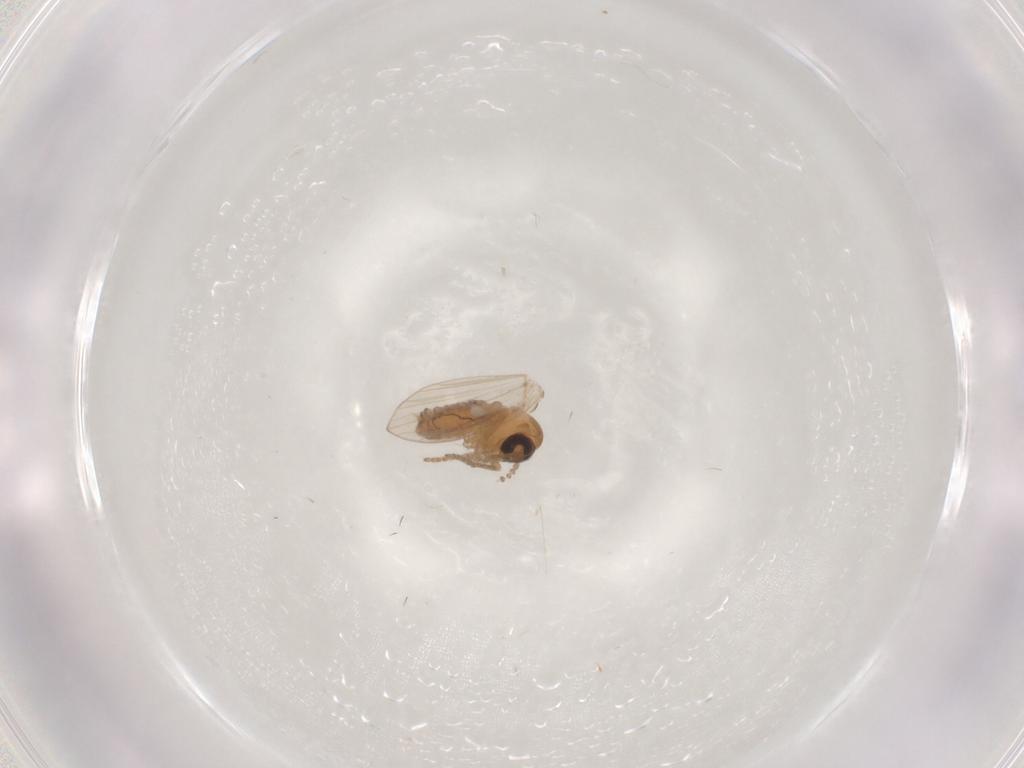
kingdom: Animalia
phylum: Arthropoda
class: Insecta
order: Diptera
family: Psychodidae
